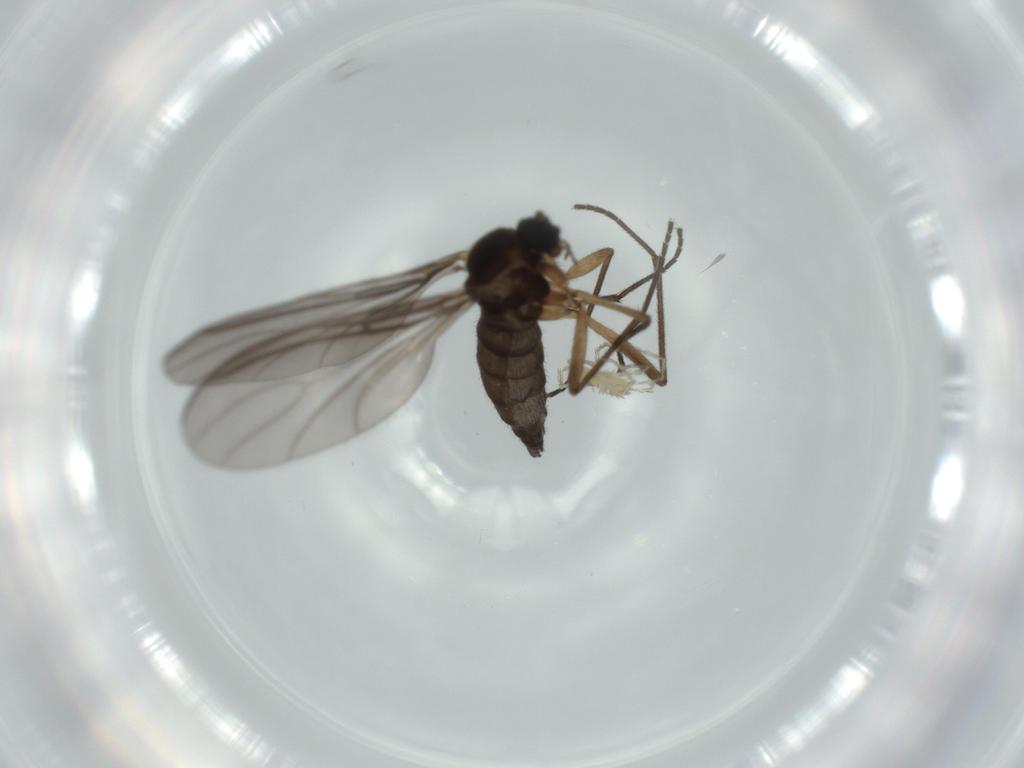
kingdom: Animalia
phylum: Arthropoda
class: Insecta
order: Diptera
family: Sciaridae
